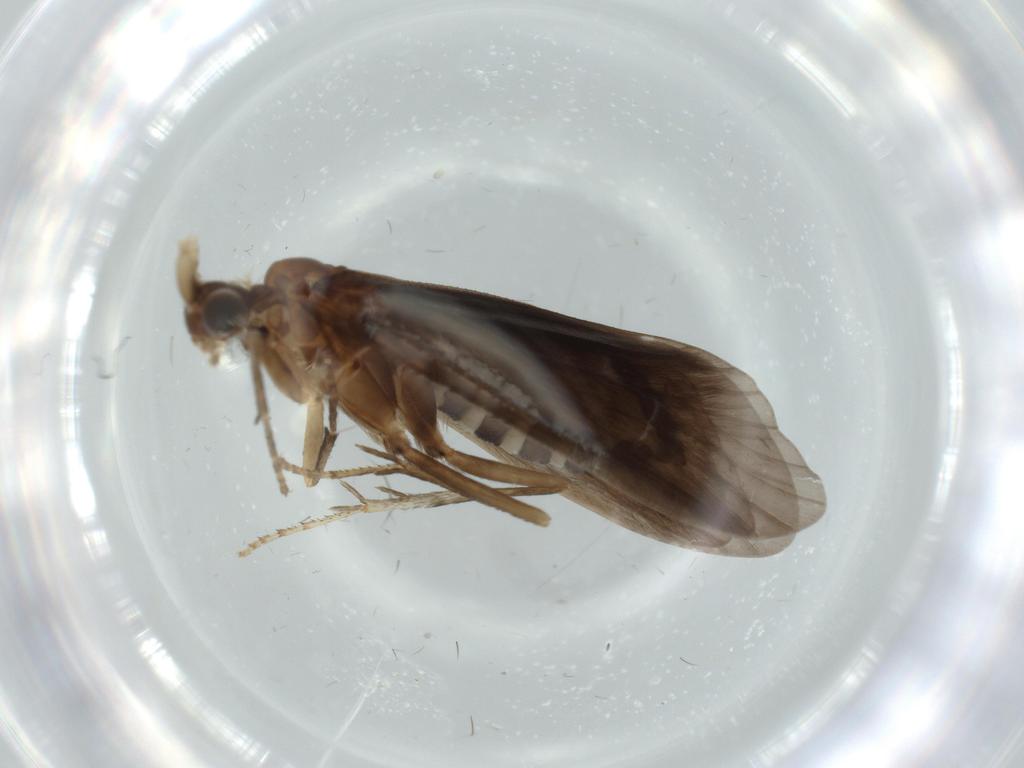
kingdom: Animalia
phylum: Arthropoda
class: Insecta
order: Trichoptera
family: Helicopsychidae
